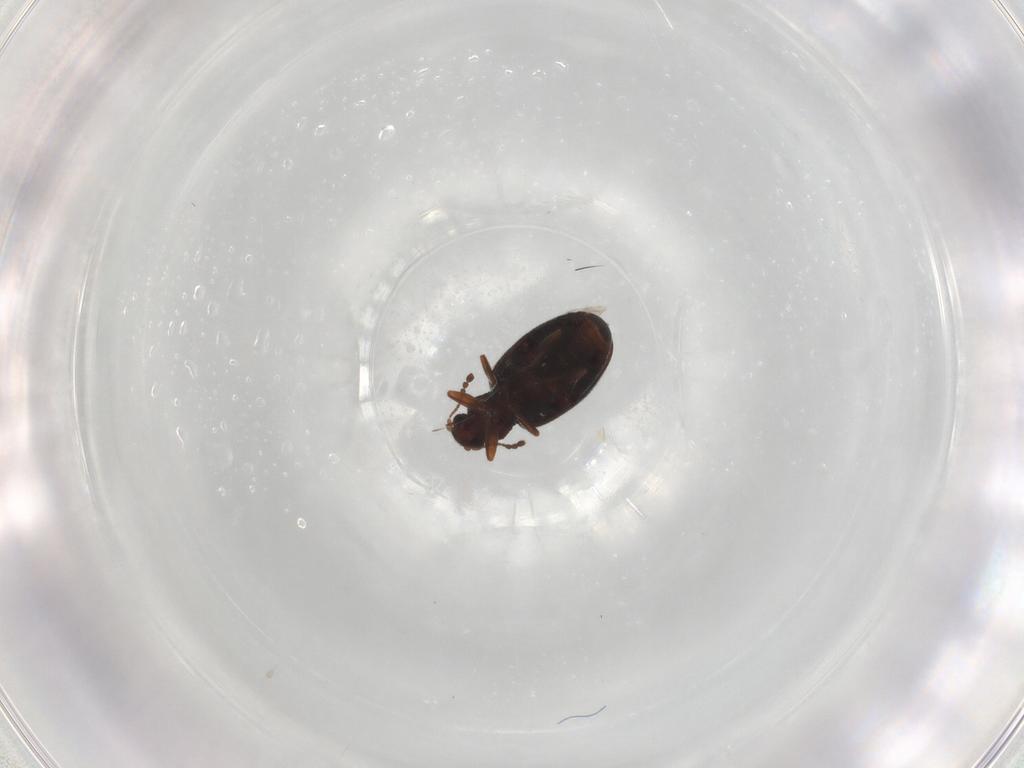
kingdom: Animalia
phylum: Arthropoda
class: Insecta
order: Coleoptera
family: Latridiidae
